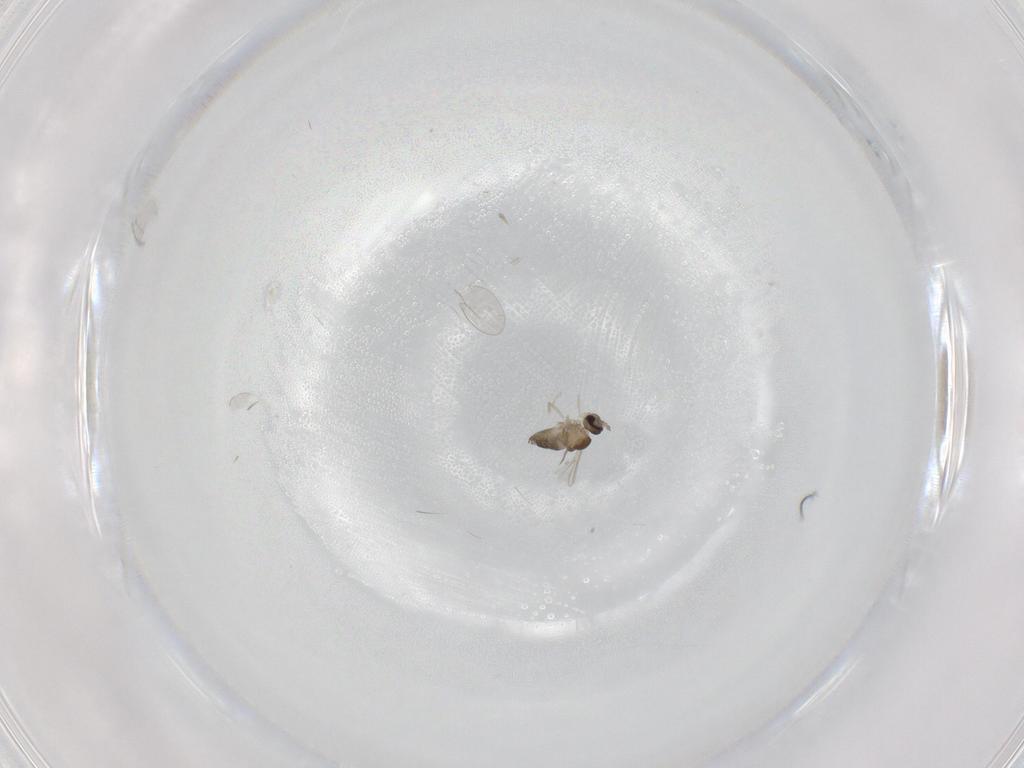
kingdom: Animalia
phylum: Arthropoda
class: Insecta
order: Diptera
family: Cecidomyiidae
